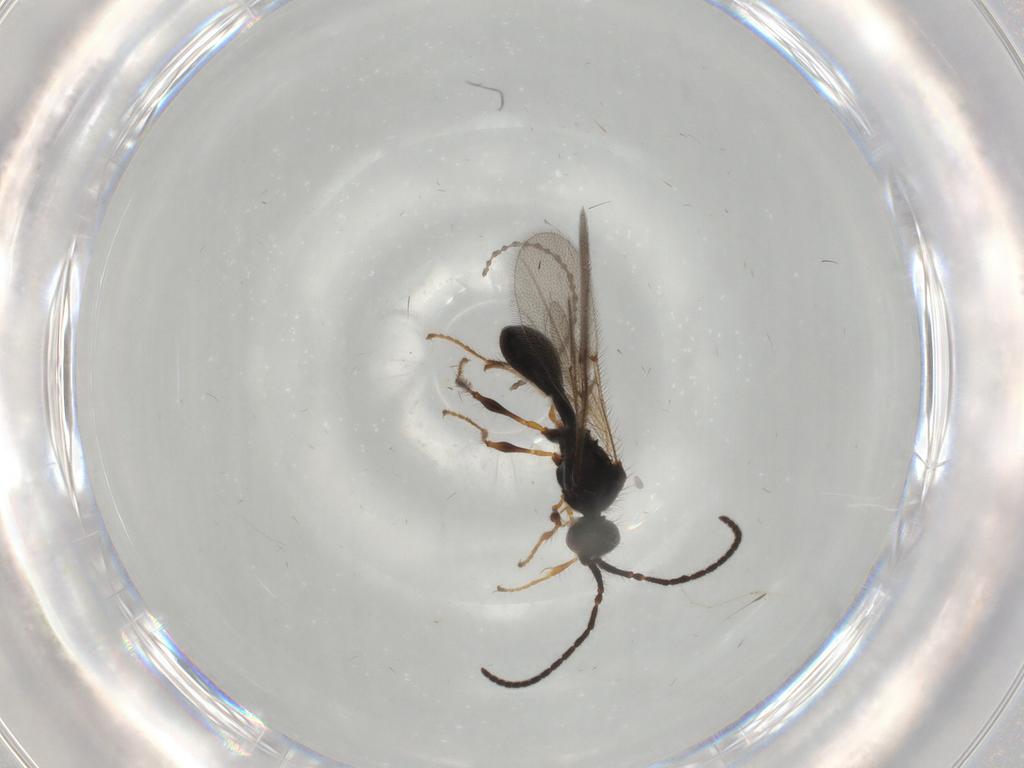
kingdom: Animalia
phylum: Arthropoda
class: Insecta
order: Hymenoptera
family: Diapriidae
